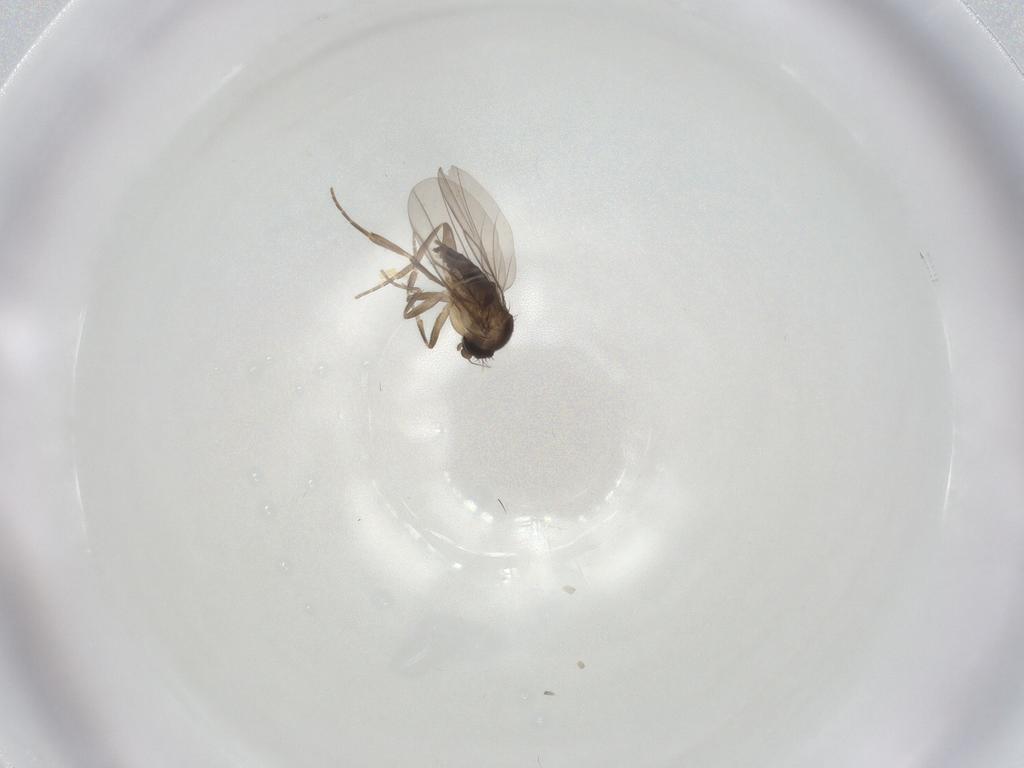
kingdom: Animalia
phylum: Arthropoda
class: Insecta
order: Diptera
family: Cecidomyiidae
